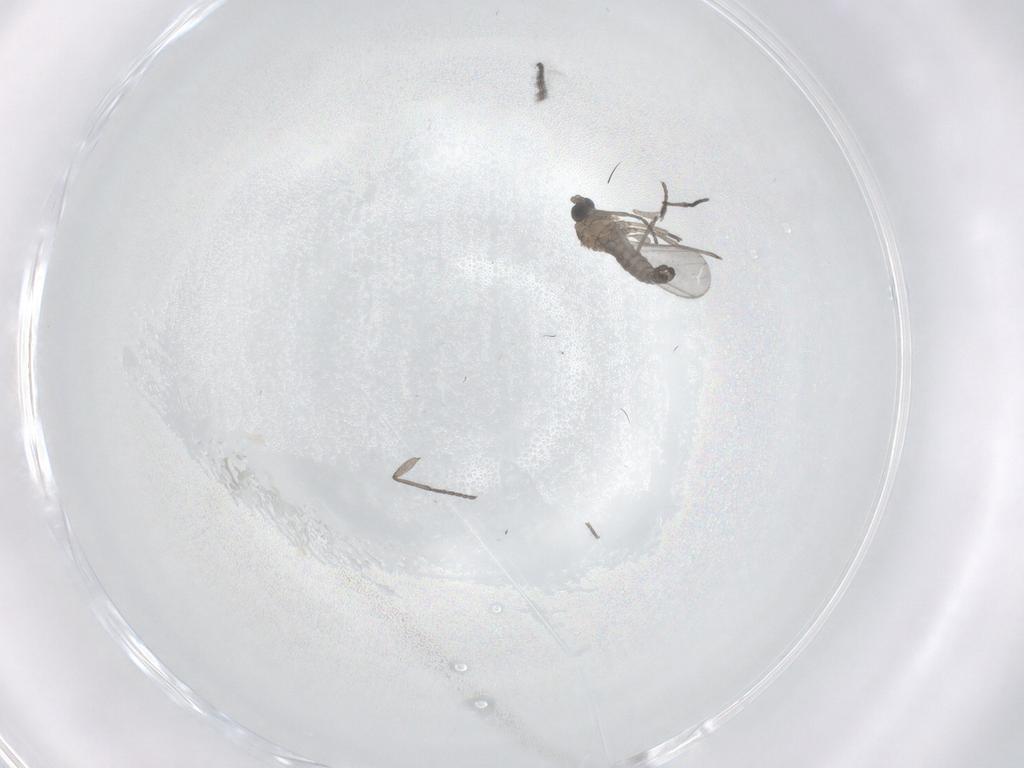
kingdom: Animalia
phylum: Arthropoda
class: Insecta
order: Diptera
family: Sciaridae
